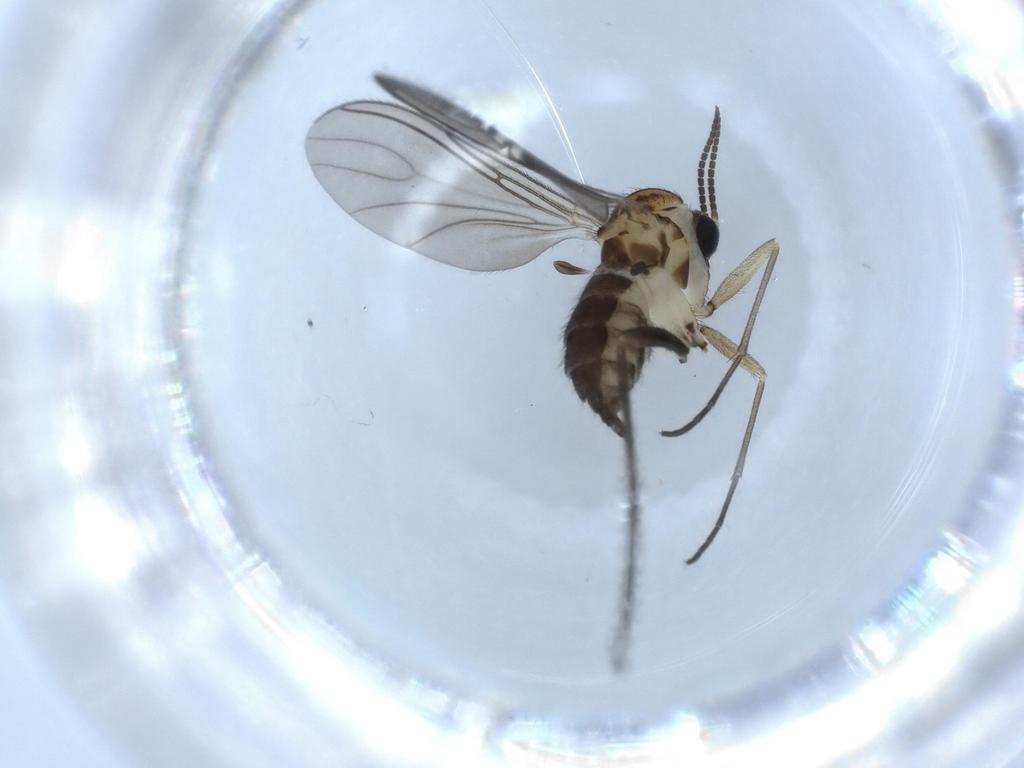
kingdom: Animalia
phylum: Arthropoda
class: Insecta
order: Diptera
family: Sciaridae
